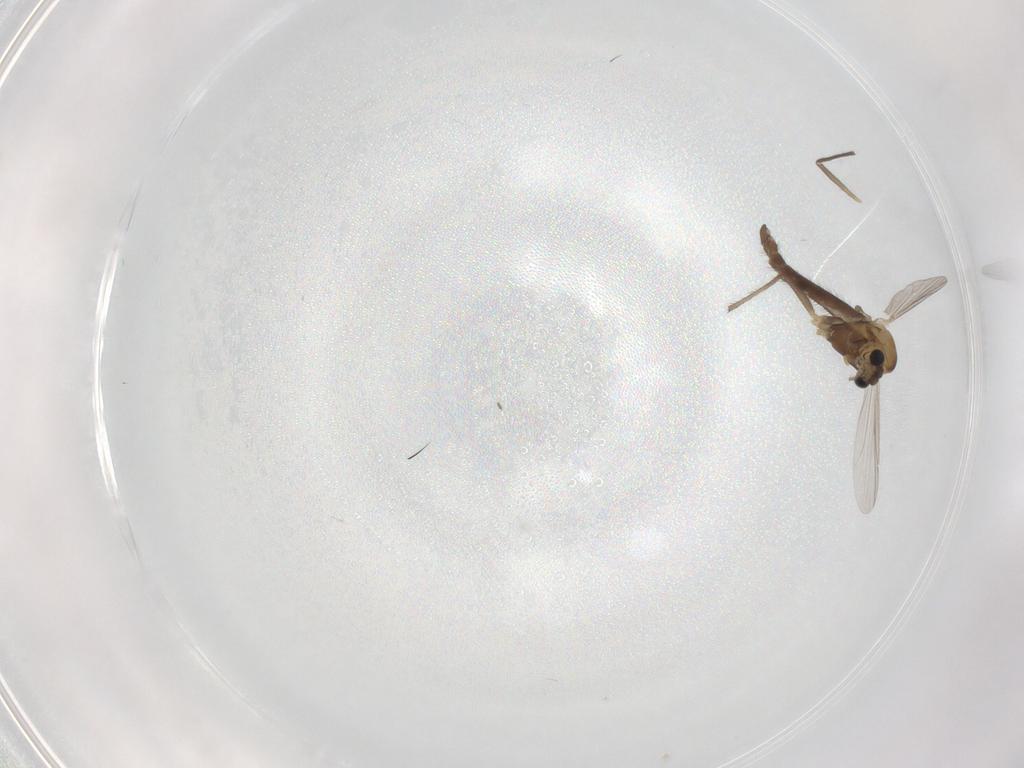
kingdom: Animalia
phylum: Arthropoda
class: Insecta
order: Diptera
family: Chironomidae
